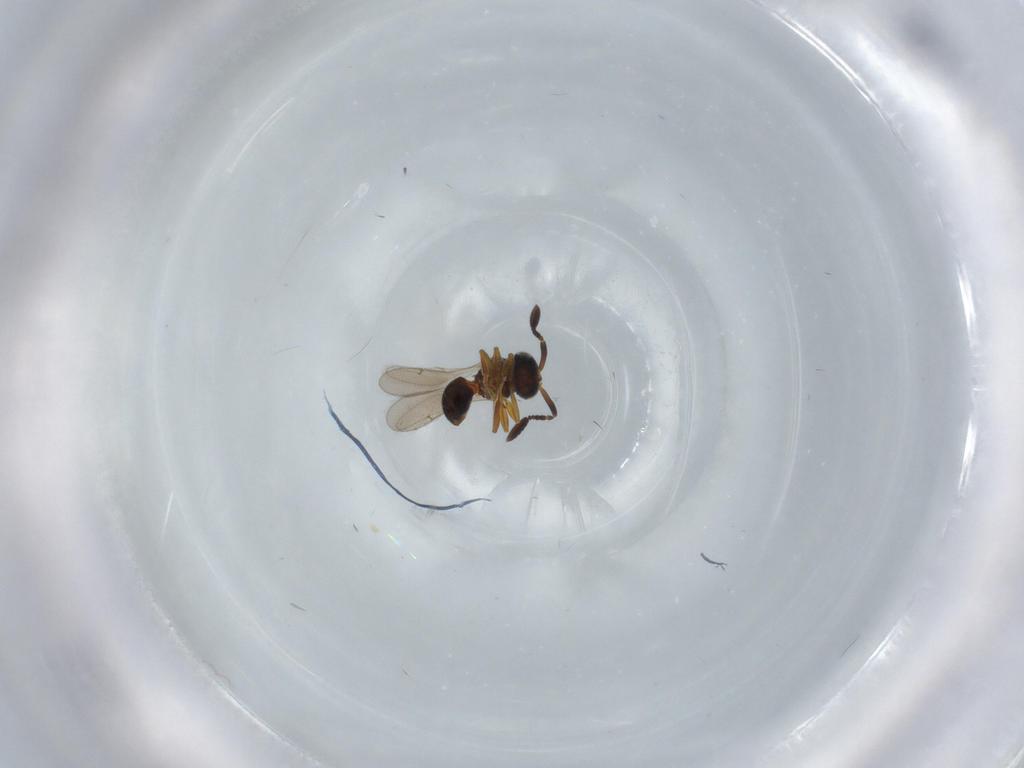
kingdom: Animalia
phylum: Arthropoda
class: Insecta
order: Hymenoptera
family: Scelionidae
